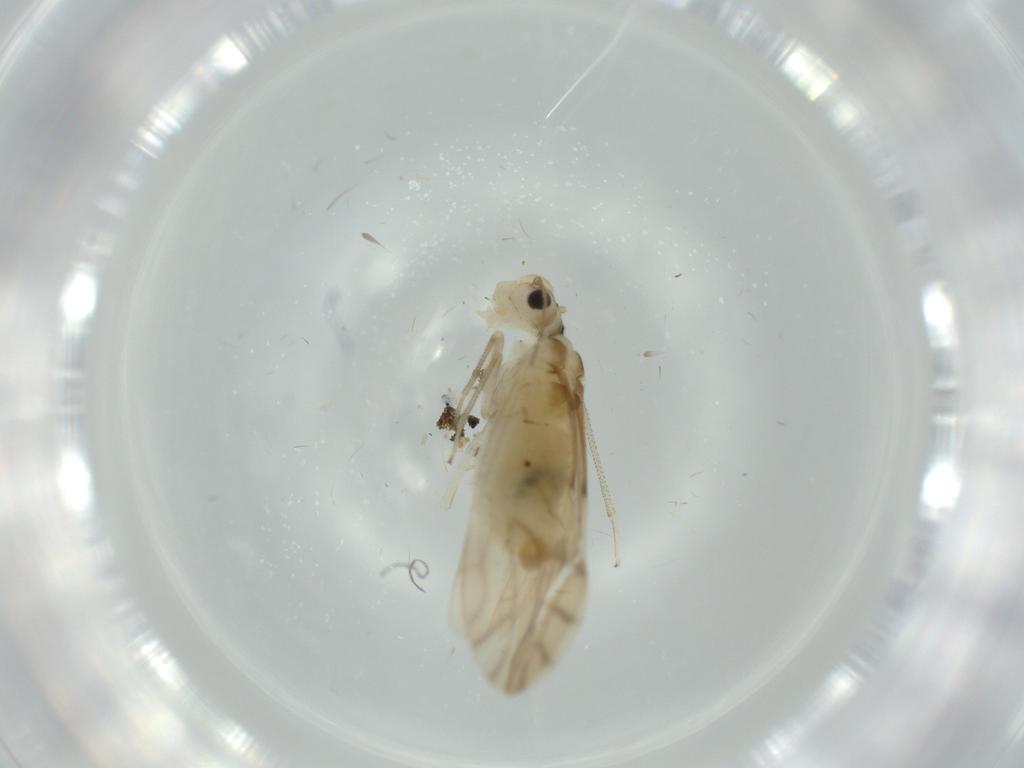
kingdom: Animalia
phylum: Arthropoda
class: Insecta
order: Psocodea
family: Caeciliusidae
